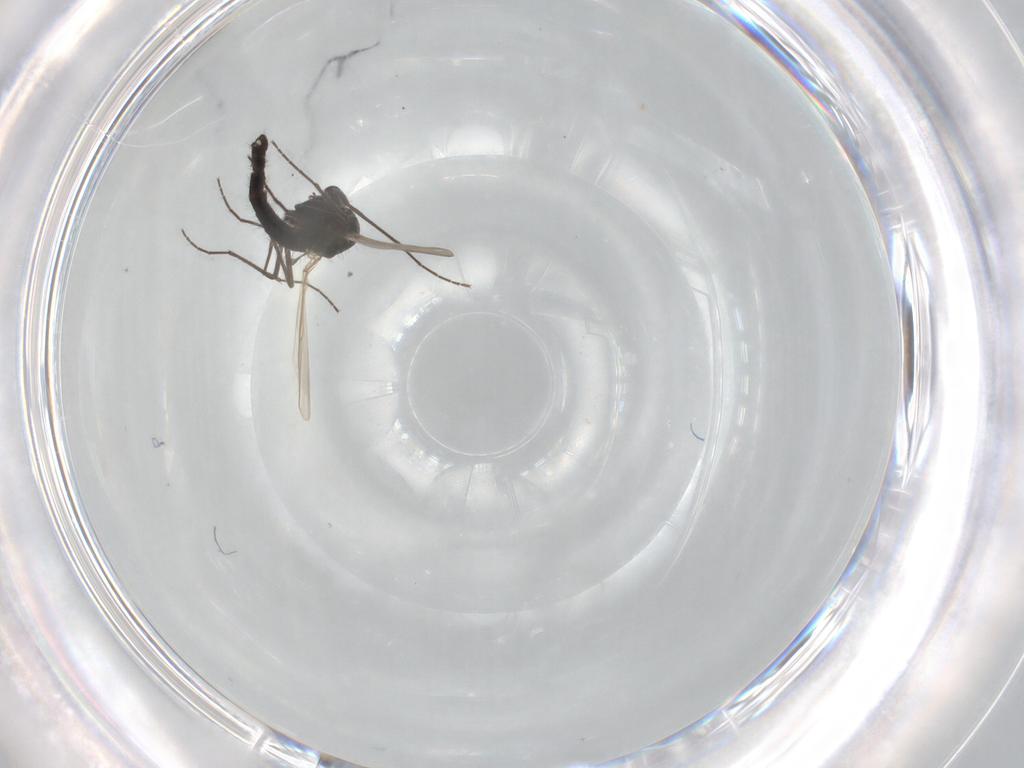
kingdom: Animalia
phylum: Arthropoda
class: Insecta
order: Diptera
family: Chironomidae
